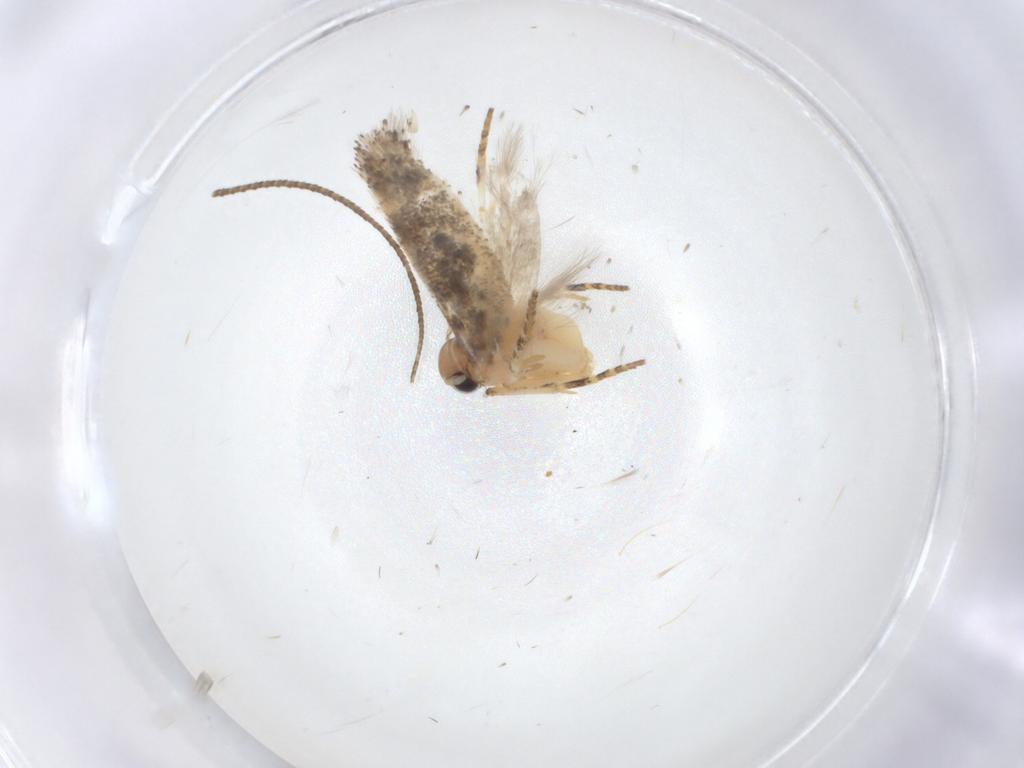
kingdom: Animalia
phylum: Arthropoda
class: Insecta
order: Lepidoptera
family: Gelechiidae
